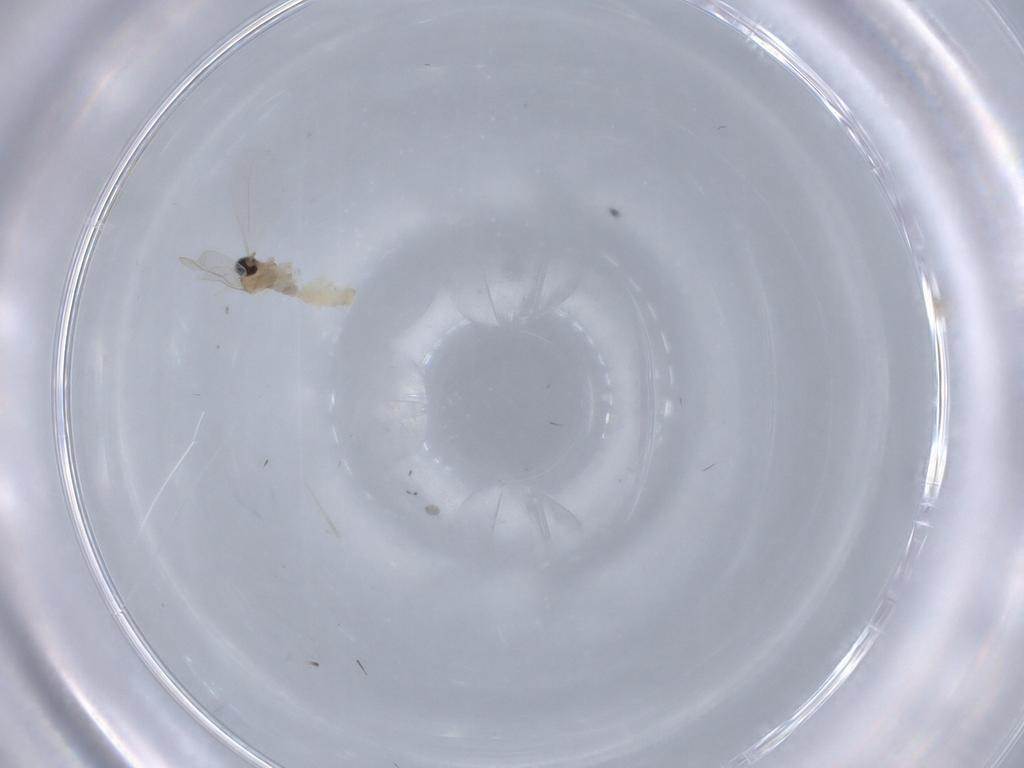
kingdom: Animalia
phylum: Arthropoda
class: Insecta
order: Diptera
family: Cecidomyiidae
